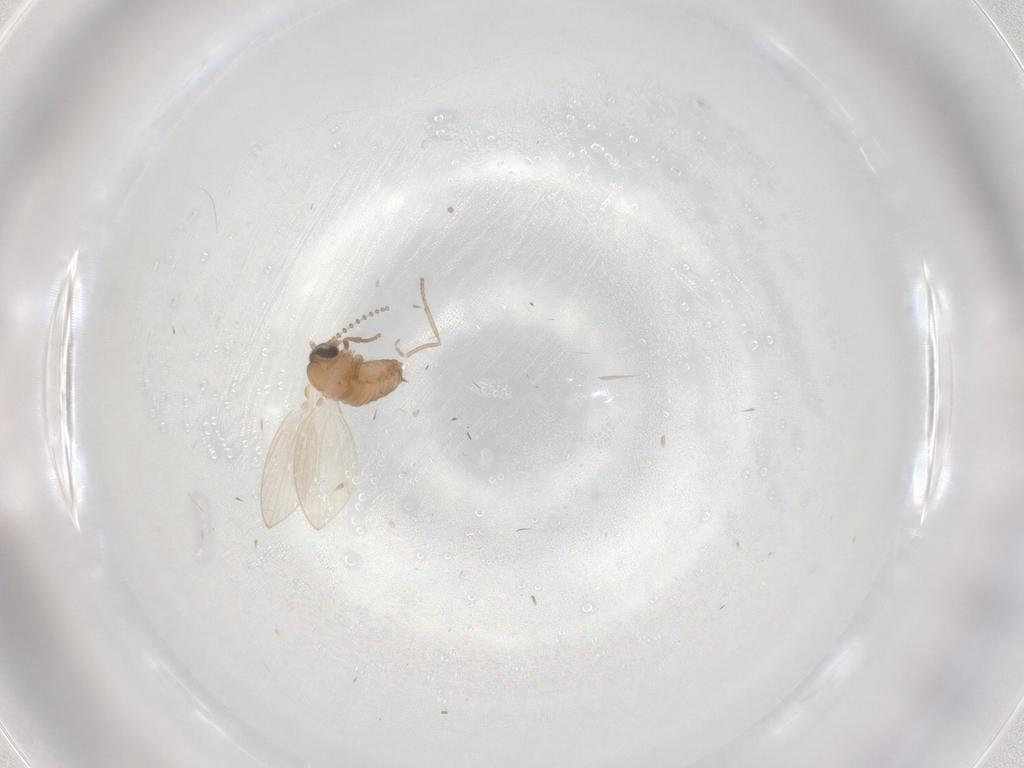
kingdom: Animalia
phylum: Arthropoda
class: Insecta
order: Diptera
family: Psychodidae
